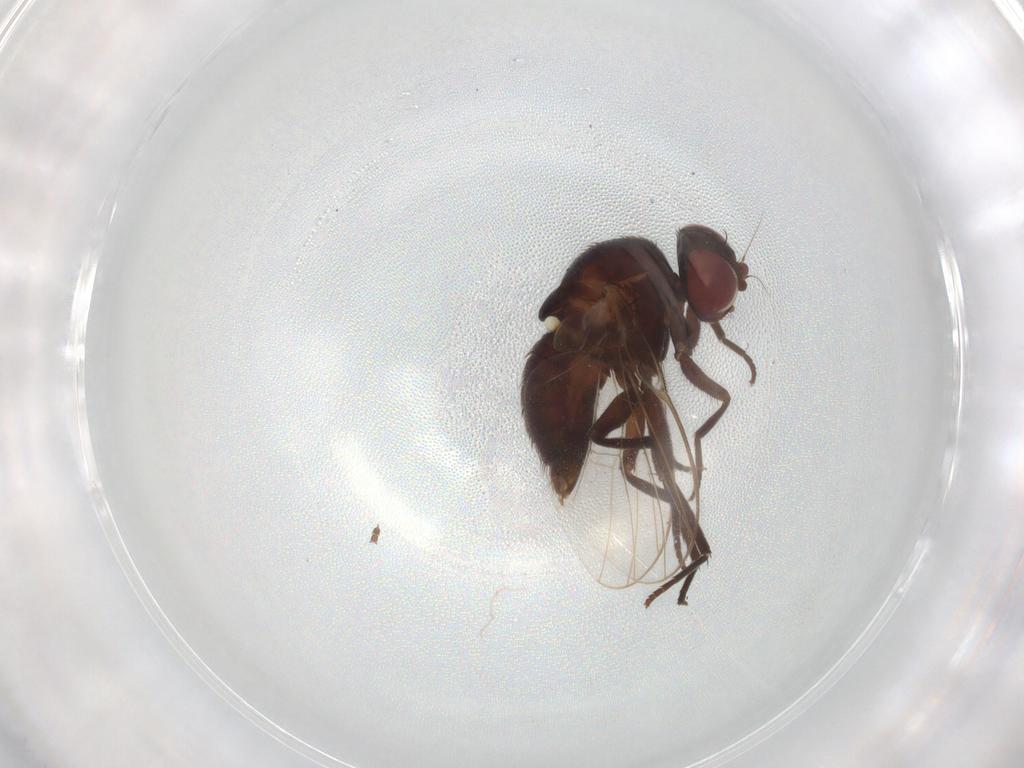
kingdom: Animalia
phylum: Arthropoda
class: Insecta
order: Diptera
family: Agromyzidae
